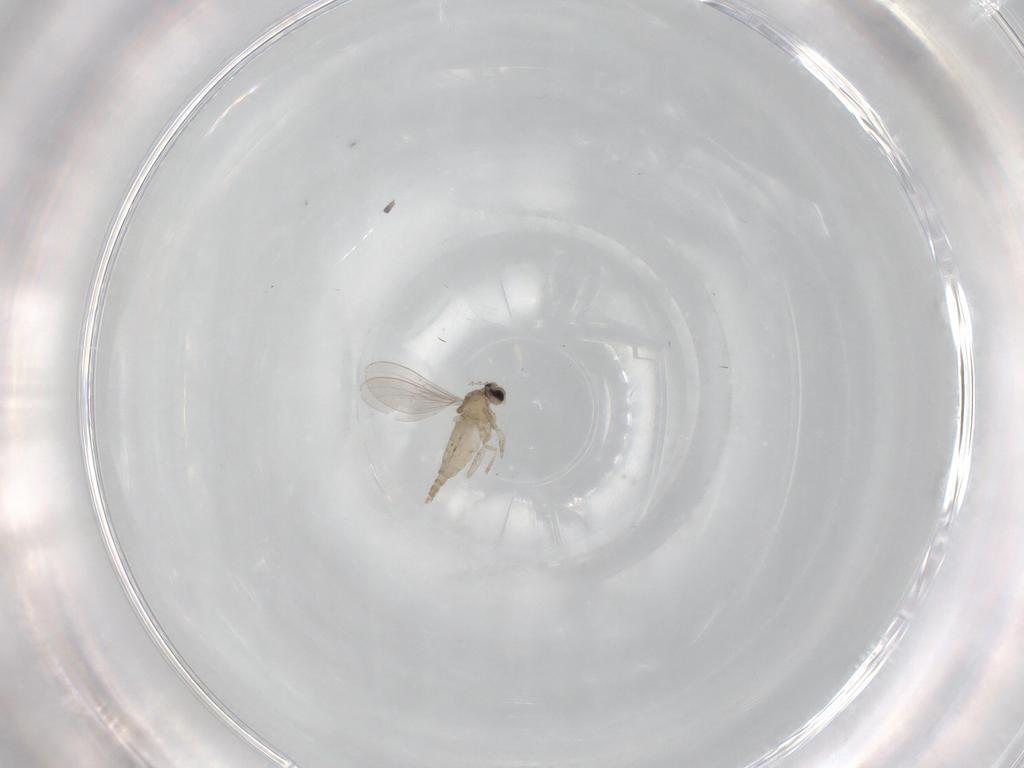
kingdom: Animalia
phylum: Arthropoda
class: Insecta
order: Diptera
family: Cecidomyiidae
